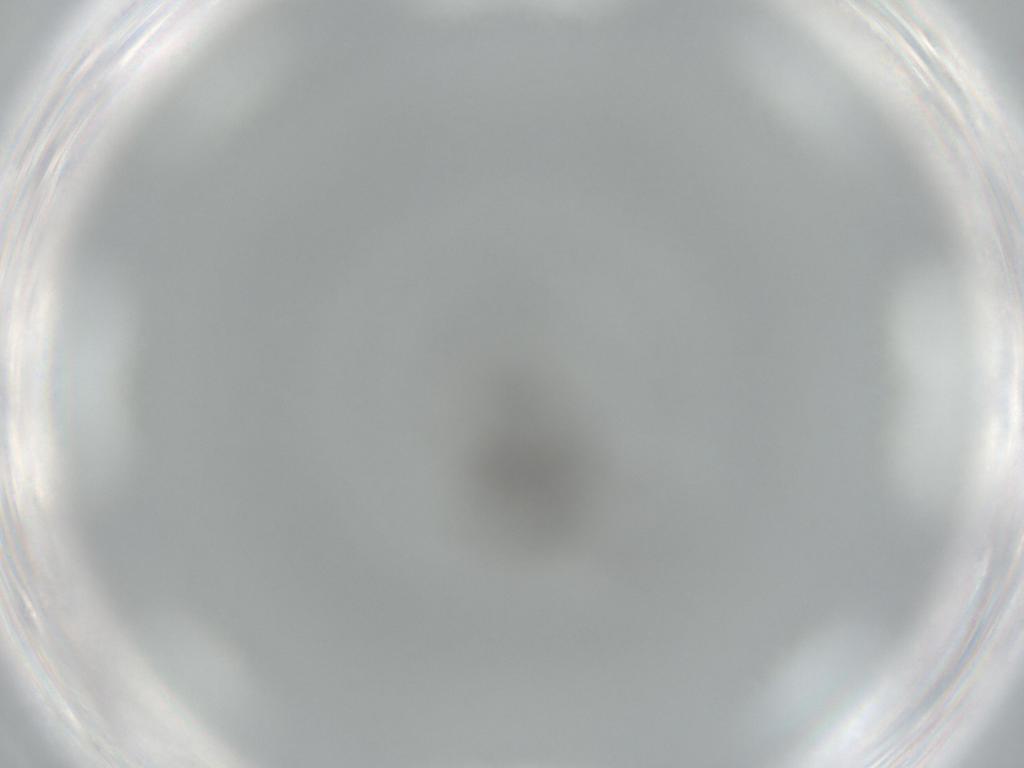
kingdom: Animalia
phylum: Arthropoda
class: Insecta
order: Diptera
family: Sciaridae
